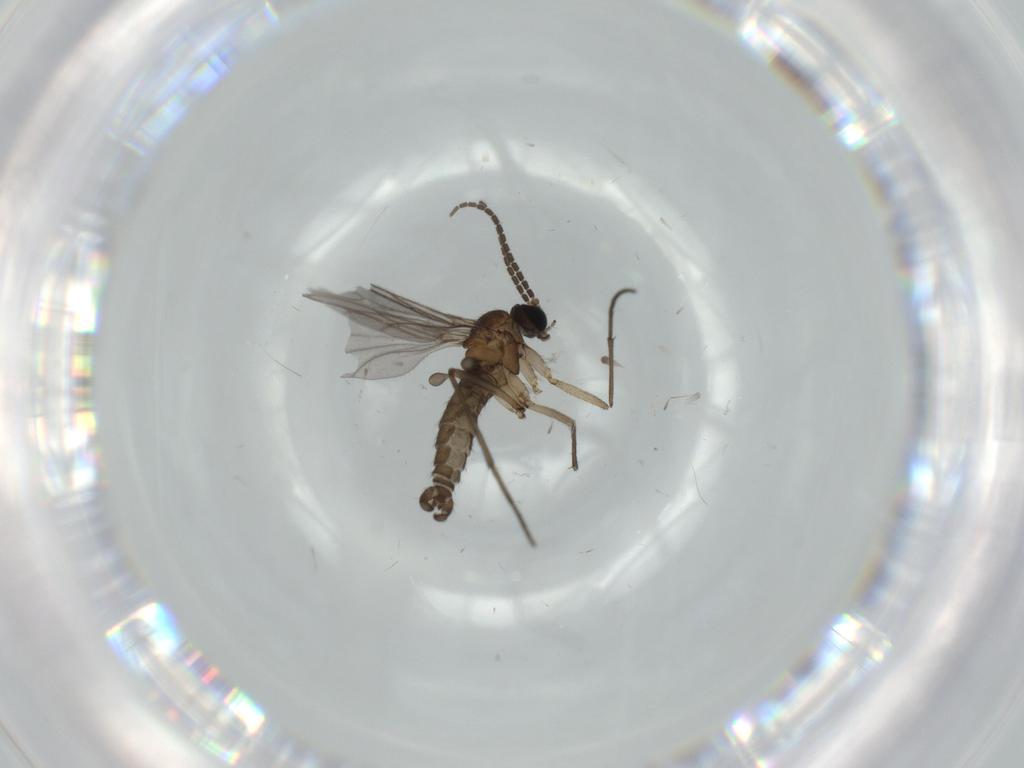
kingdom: Animalia
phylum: Arthropoda
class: Insecta
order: Diptera
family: Sciaridae
